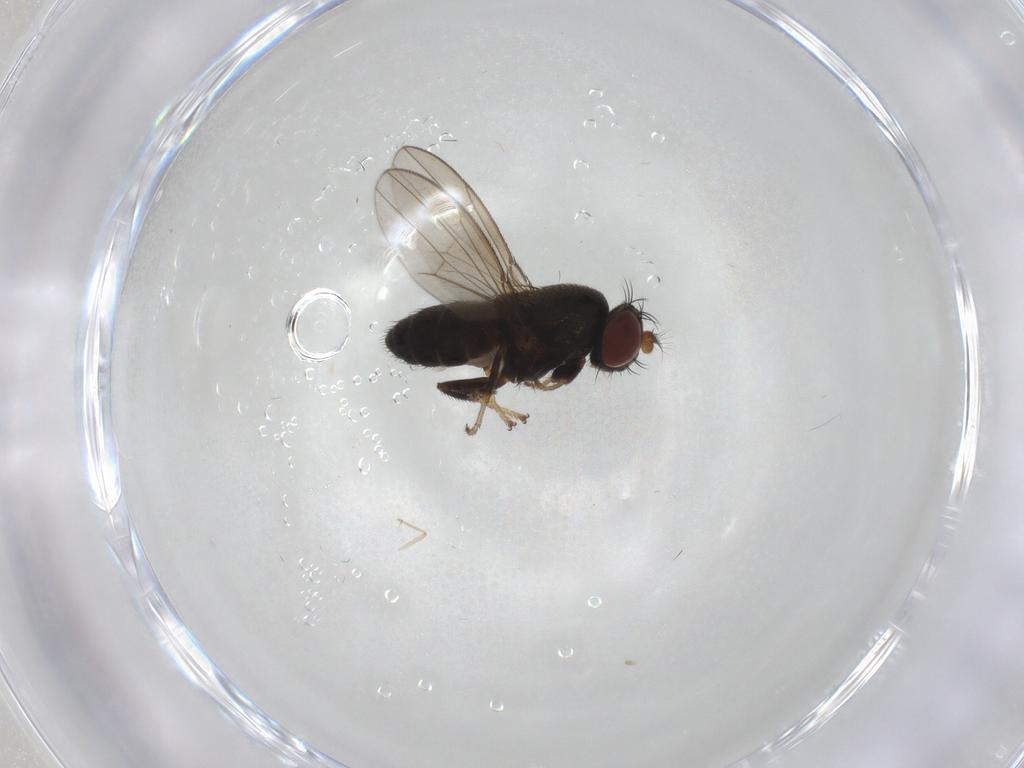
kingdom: Animalia
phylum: Arthropoda
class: Insecta
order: Diptera
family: Ephydridae
